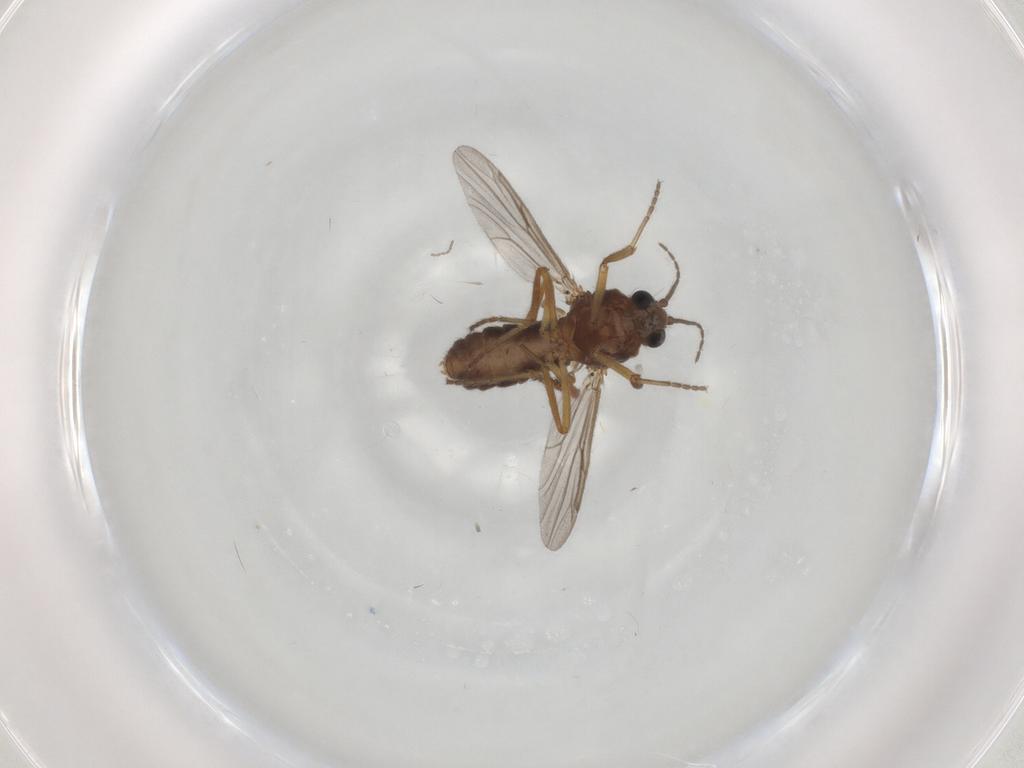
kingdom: Animalia
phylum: Arthropoda
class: Insecta
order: Diptera
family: Ceratopogonidae
